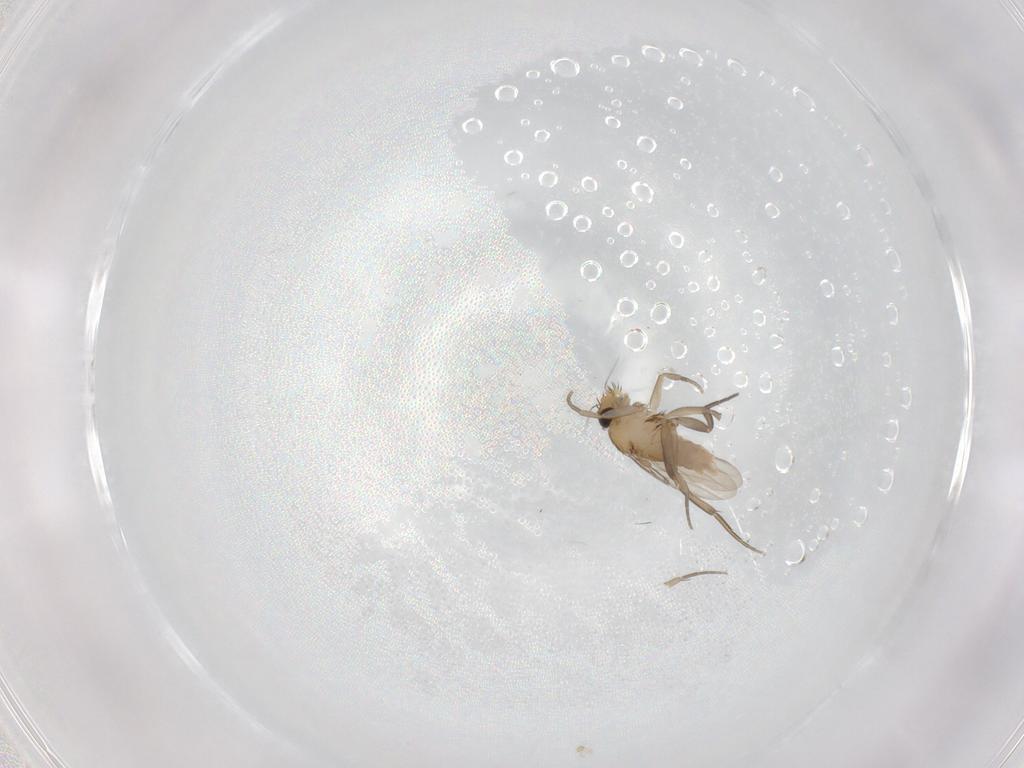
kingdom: Animalia
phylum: Arthropoda
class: Insecta
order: Diptera
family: Phoridae
